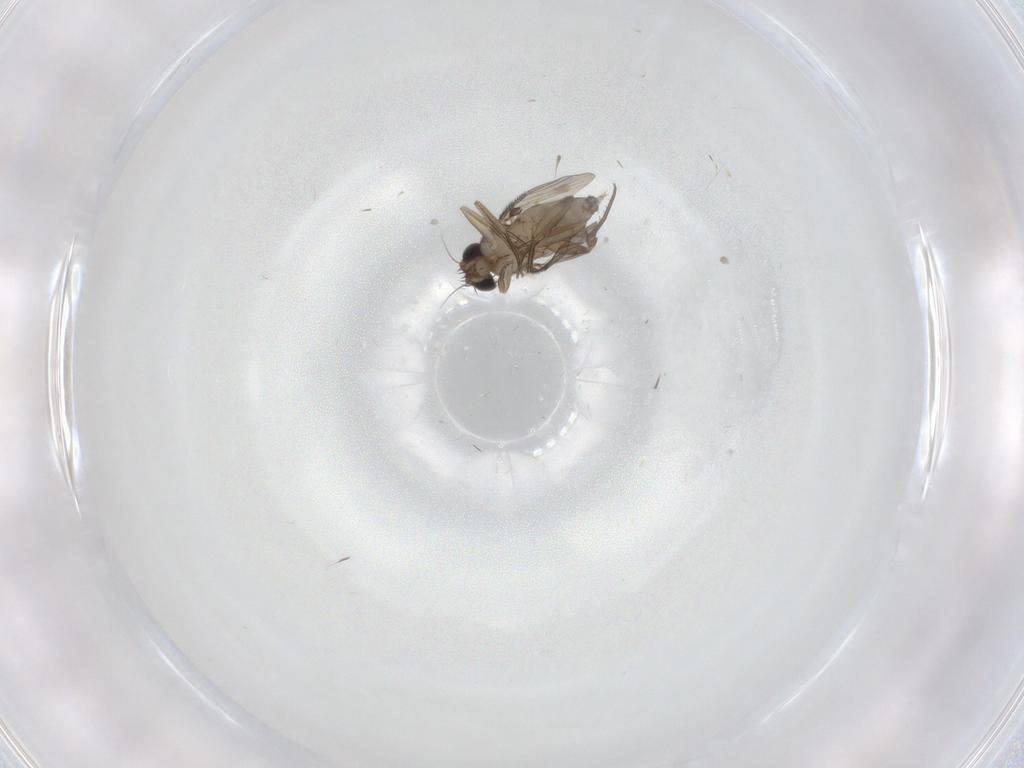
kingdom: Animalia
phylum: Arthropoda
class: Insecta
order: Diptera
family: Phoridae
